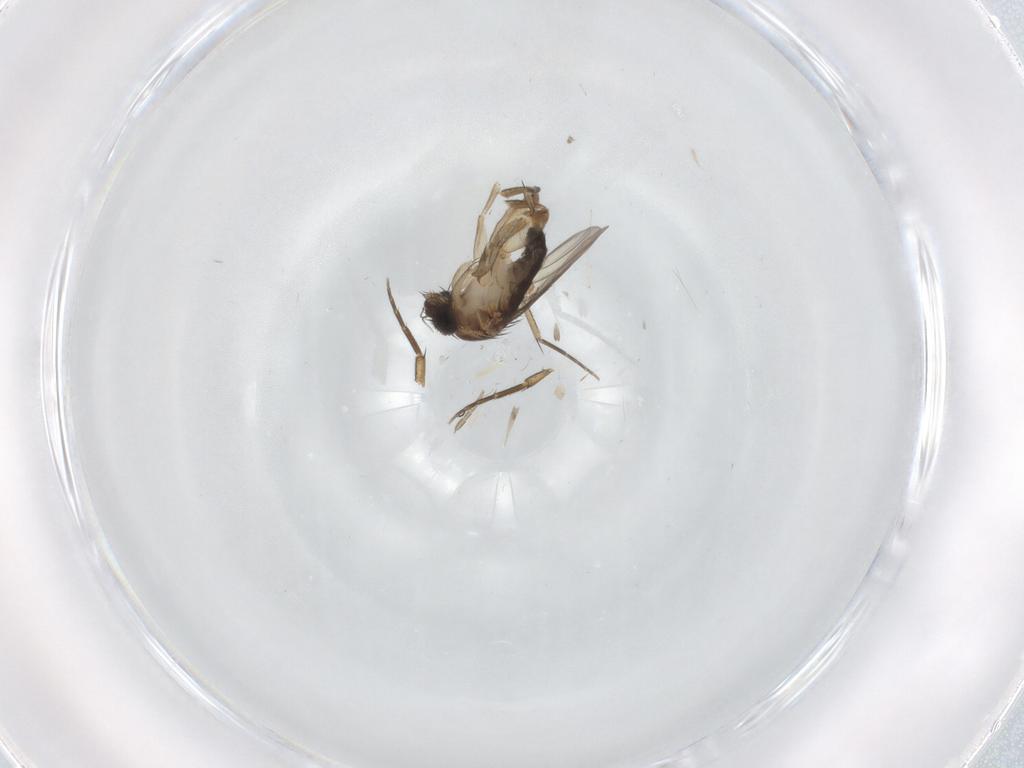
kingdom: Animalia
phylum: Arthropoda
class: Insecta
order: Diptera
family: Phoridae
